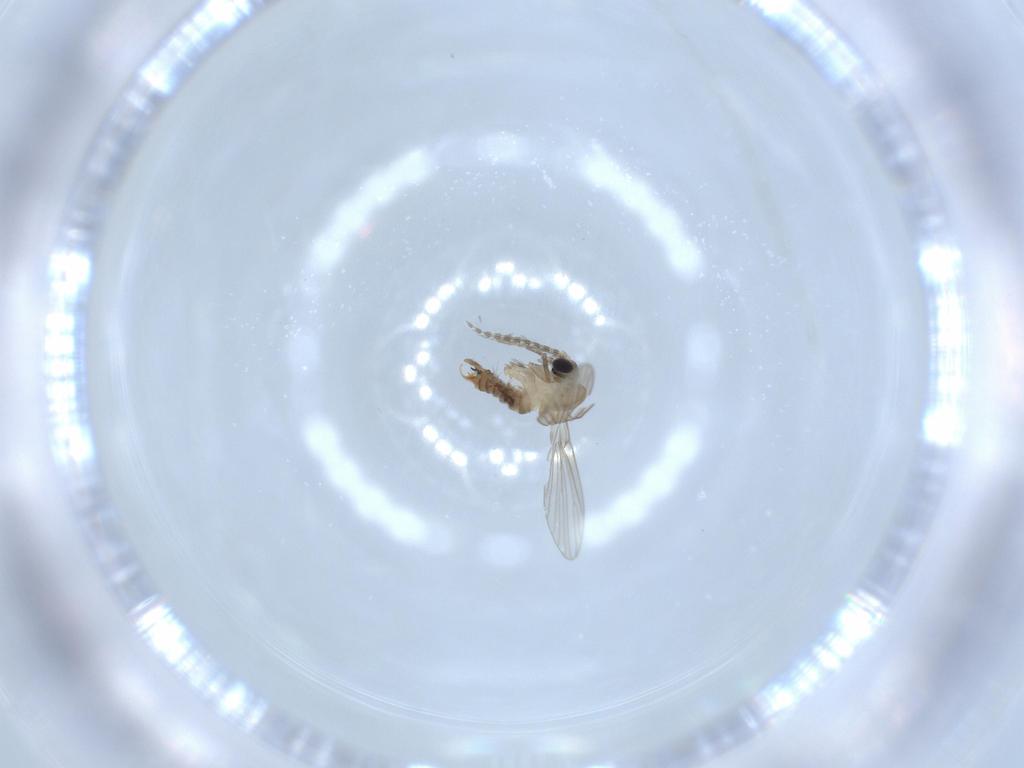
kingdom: Animalia
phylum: Arthropoda
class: Insecta
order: Diptera
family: Psychodidae
